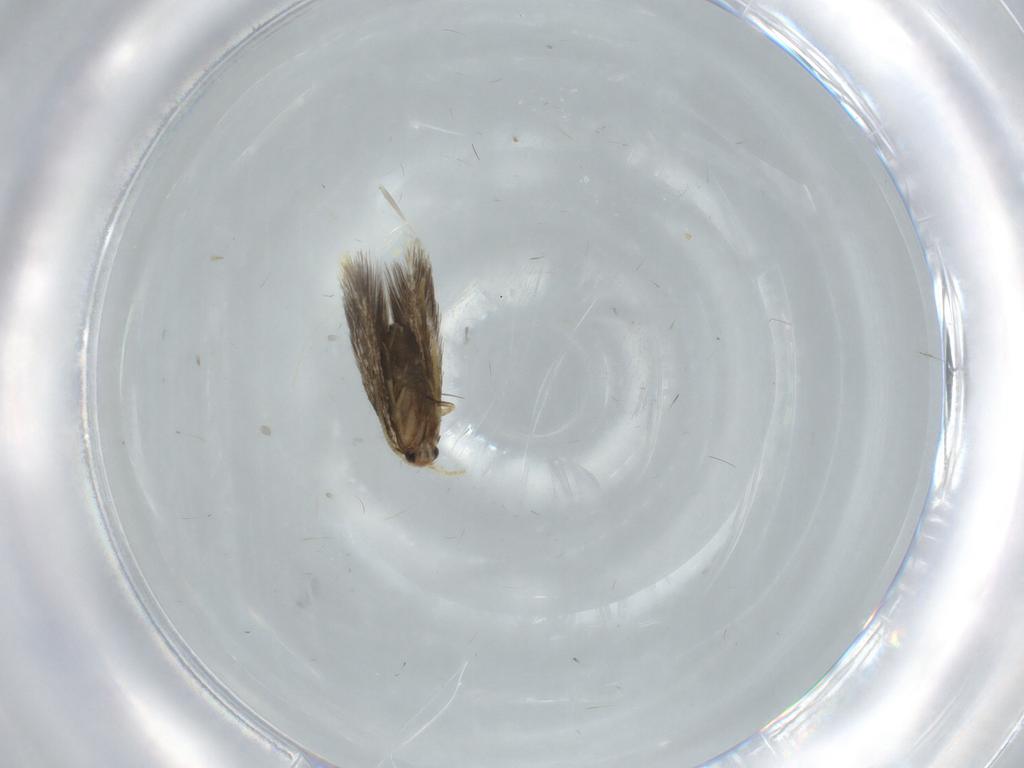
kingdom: Animalia
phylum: Arthropoda
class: Insecta
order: Lepidoptera
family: Copromorphidae
